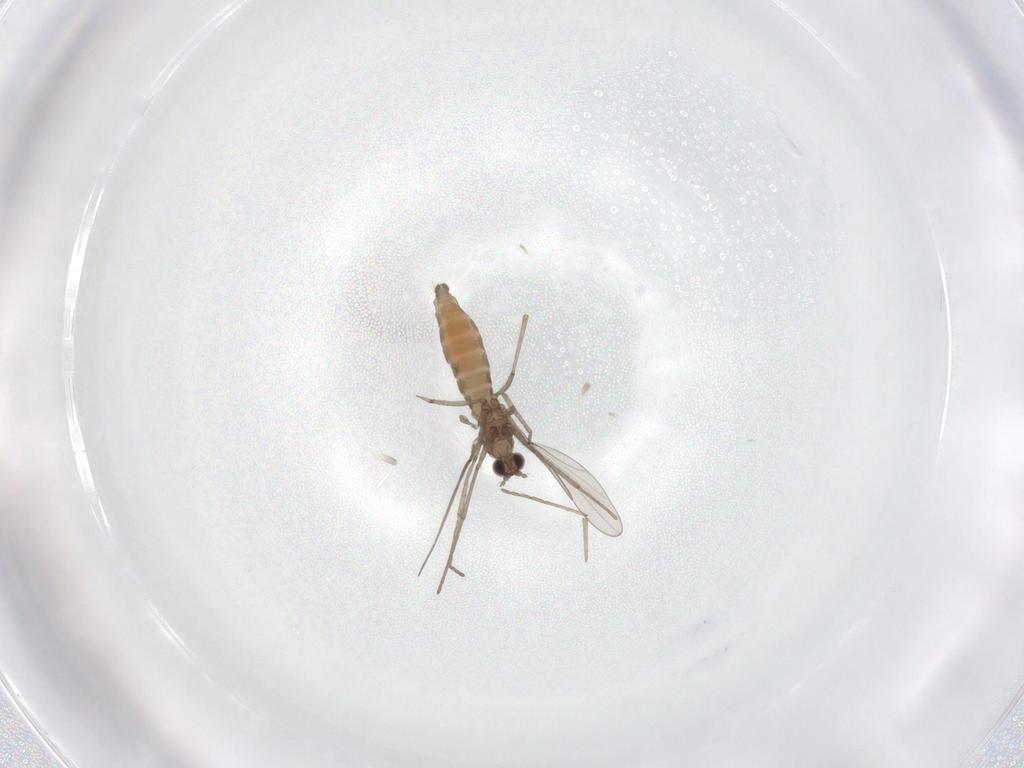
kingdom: Animalia
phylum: Arthropoda
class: Insecta
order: Diptera
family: Cecidomyiidae
